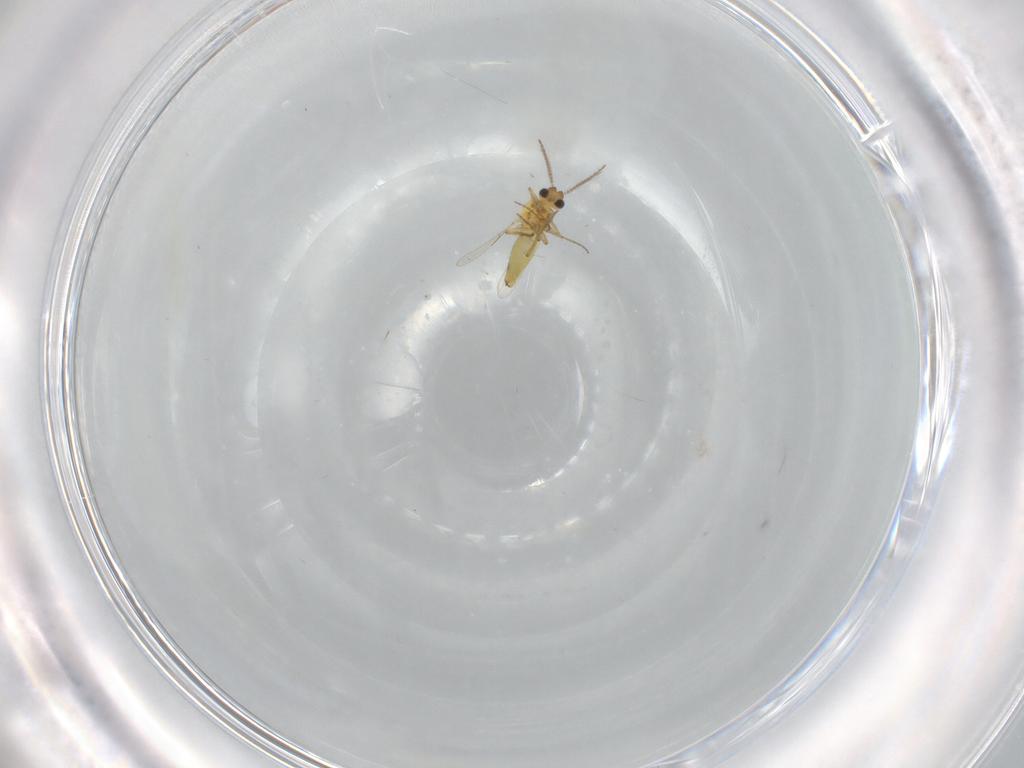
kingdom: Animalia
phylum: Arthropoda
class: Insecta
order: Diptera
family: Ceratopogonidae
